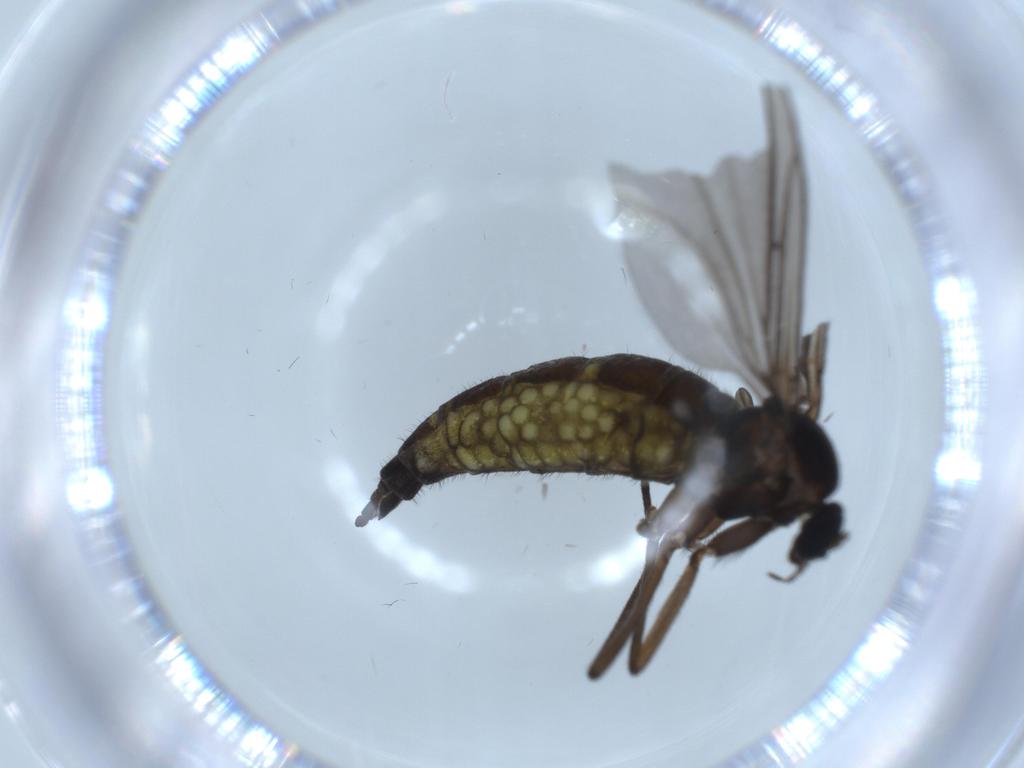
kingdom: Animalia
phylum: Arthropoda
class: Insecta
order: Diptera
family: Sciaridae
